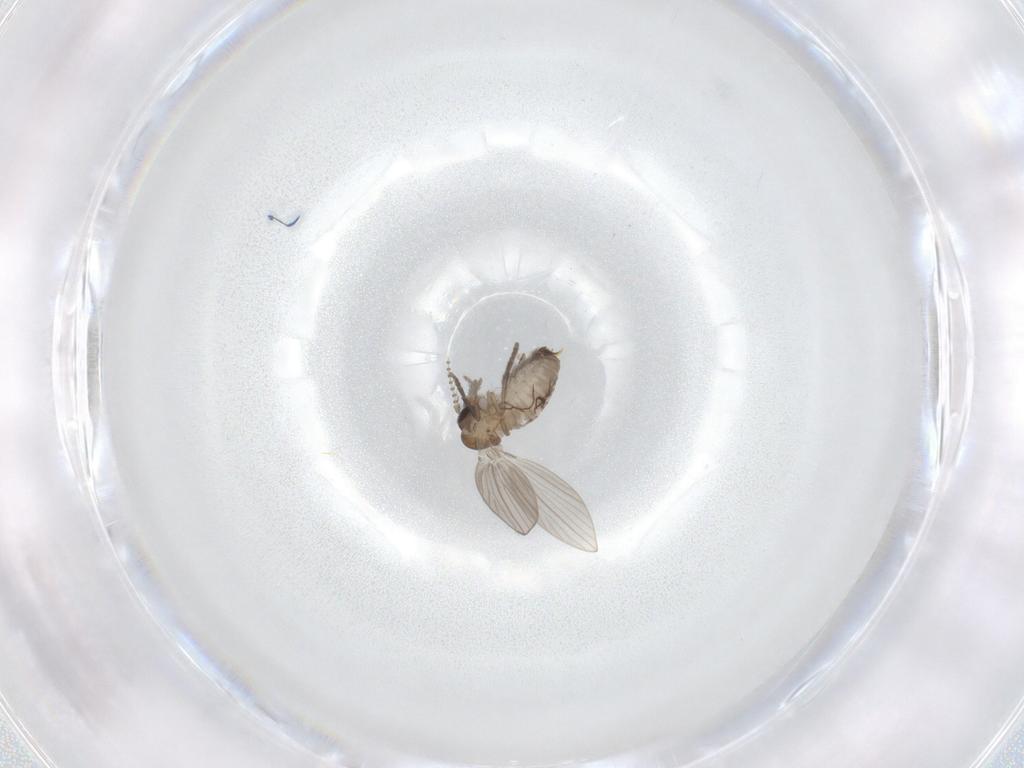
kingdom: Animalia
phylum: Arthropoda
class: Insecta
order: Diptera
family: Psychodidae
